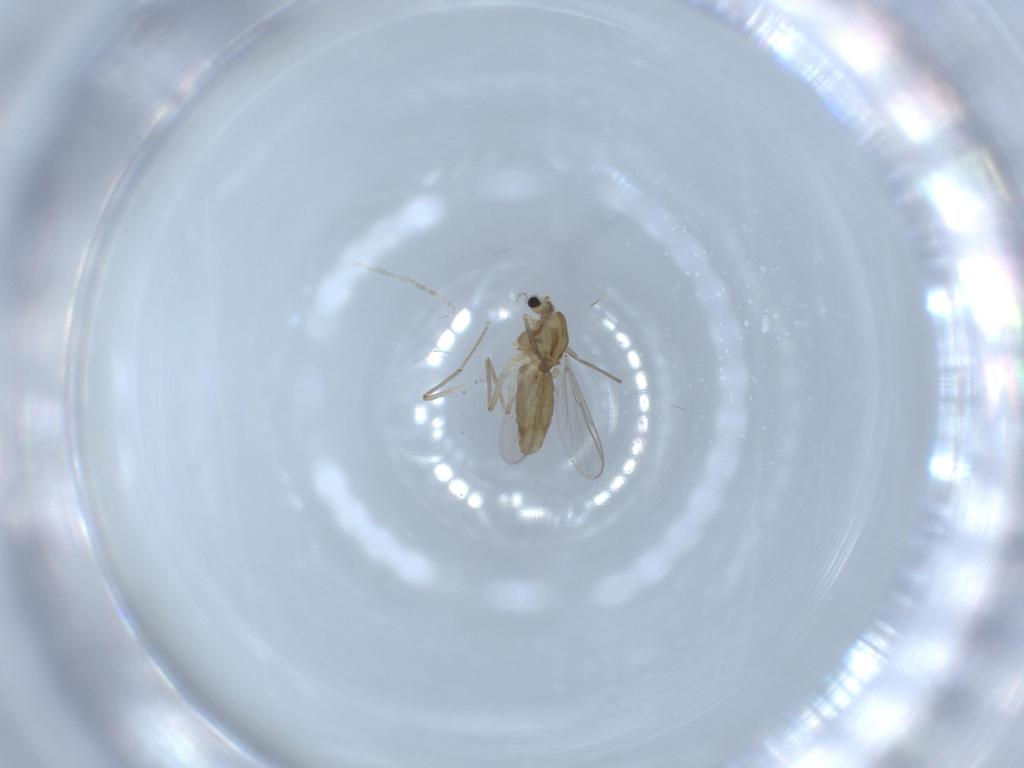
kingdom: Animalia
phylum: Arthropoda
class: Insecta
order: Diptera
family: Chironomidae
